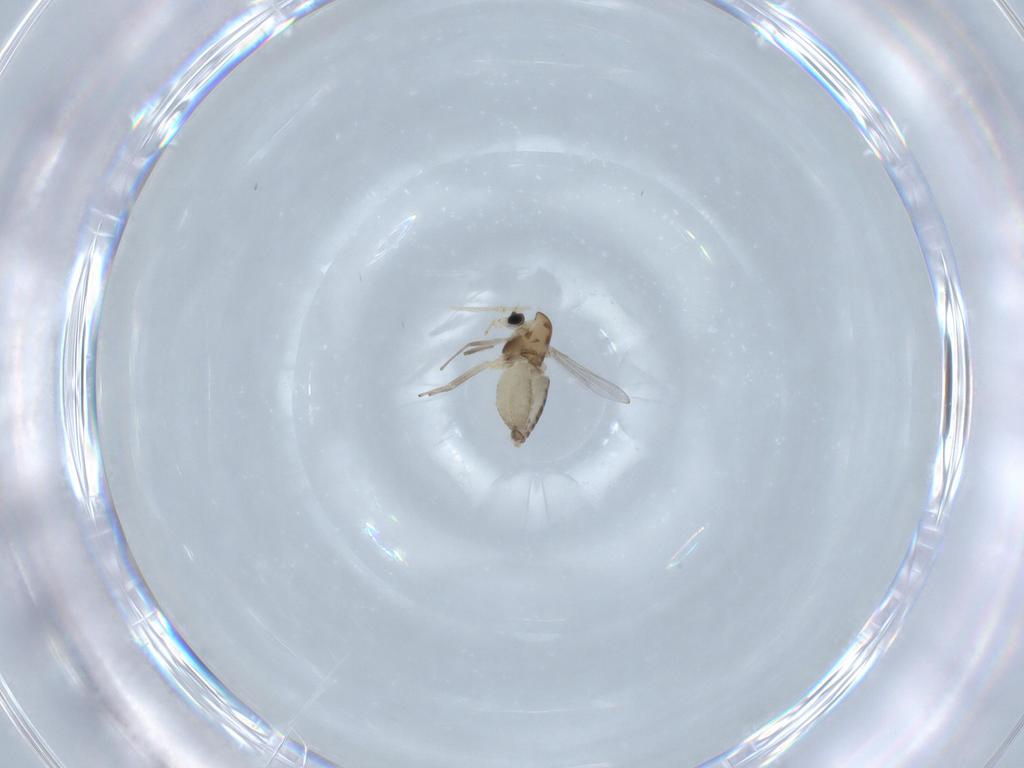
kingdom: Animalia
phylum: Arthropoda
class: Insecta
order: Diptera
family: Chironomidae
